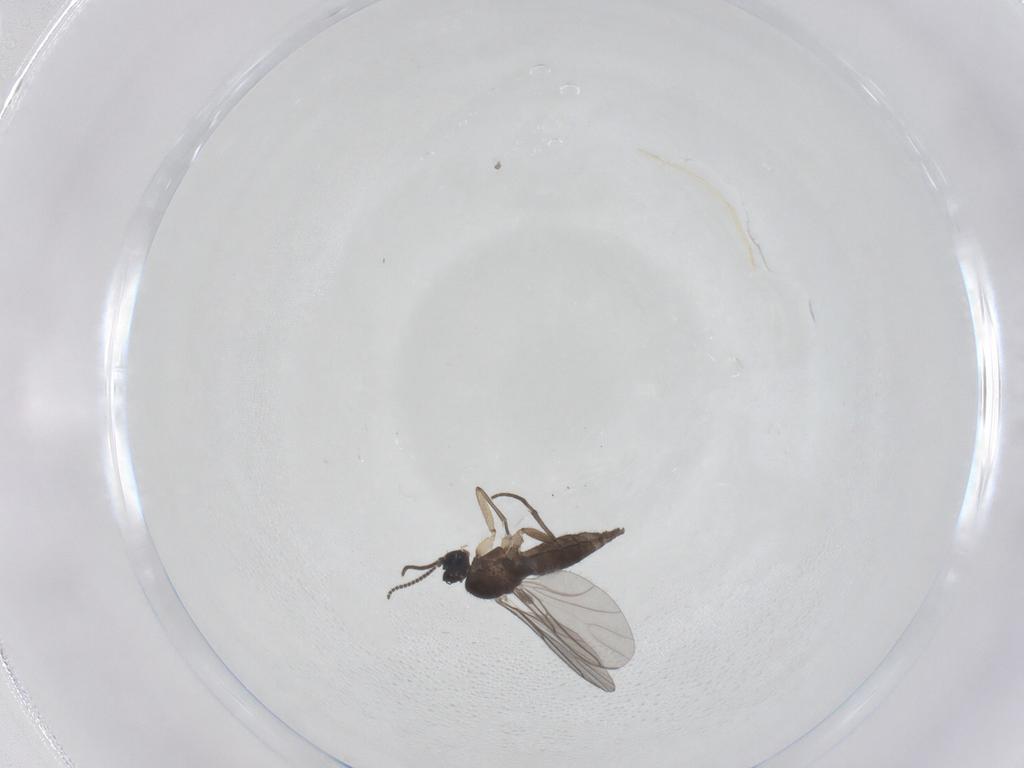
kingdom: Animalia
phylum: Arthropoda
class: Insecta
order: Diptera
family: Sciaridae
